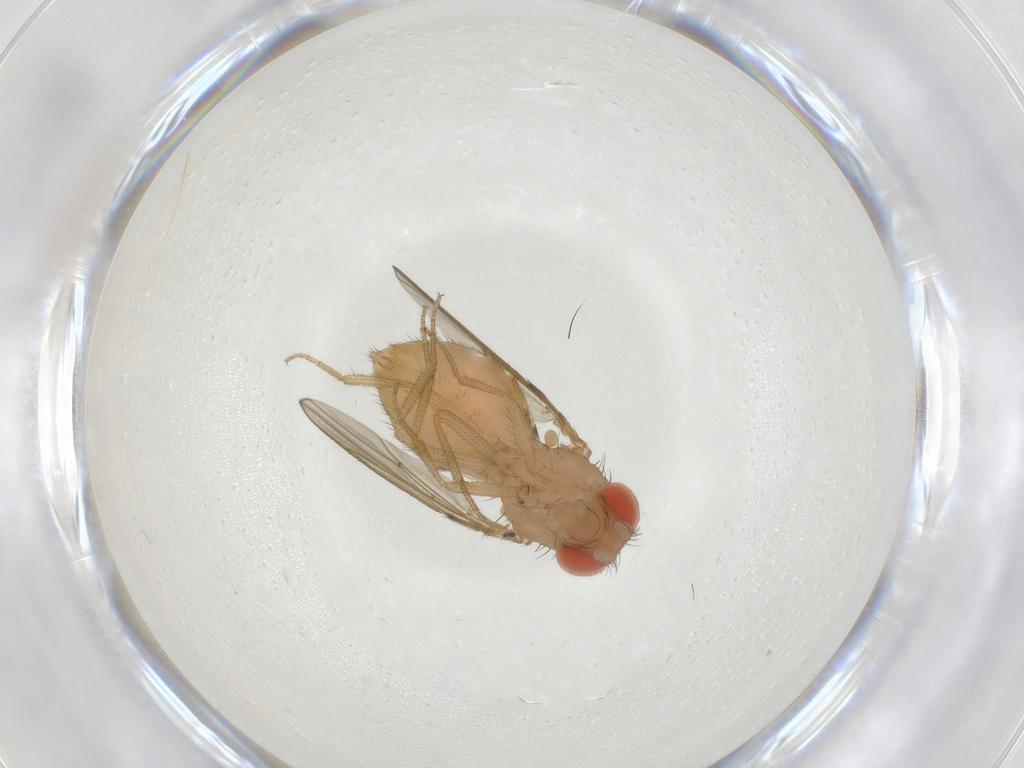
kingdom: Animalia
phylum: Arthropoda
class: Insecta
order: Diptera
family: Drosophilidae
